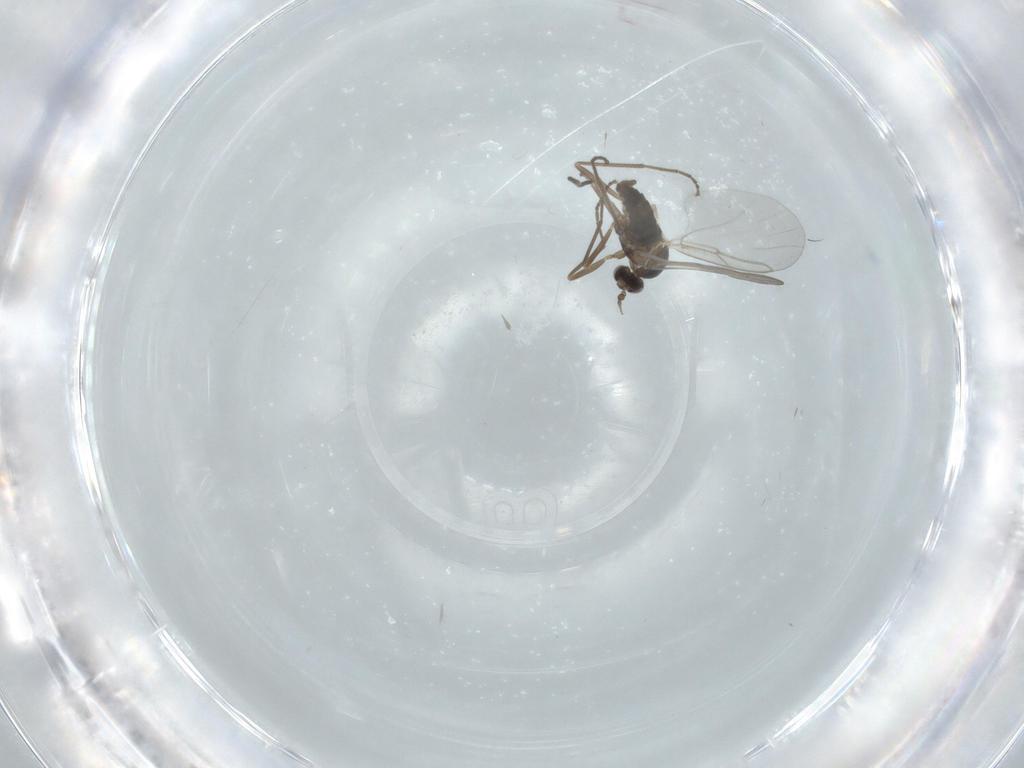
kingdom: Animalia
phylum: Arthropoda
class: Insecta
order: Diptera
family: Cecidomyiidae
